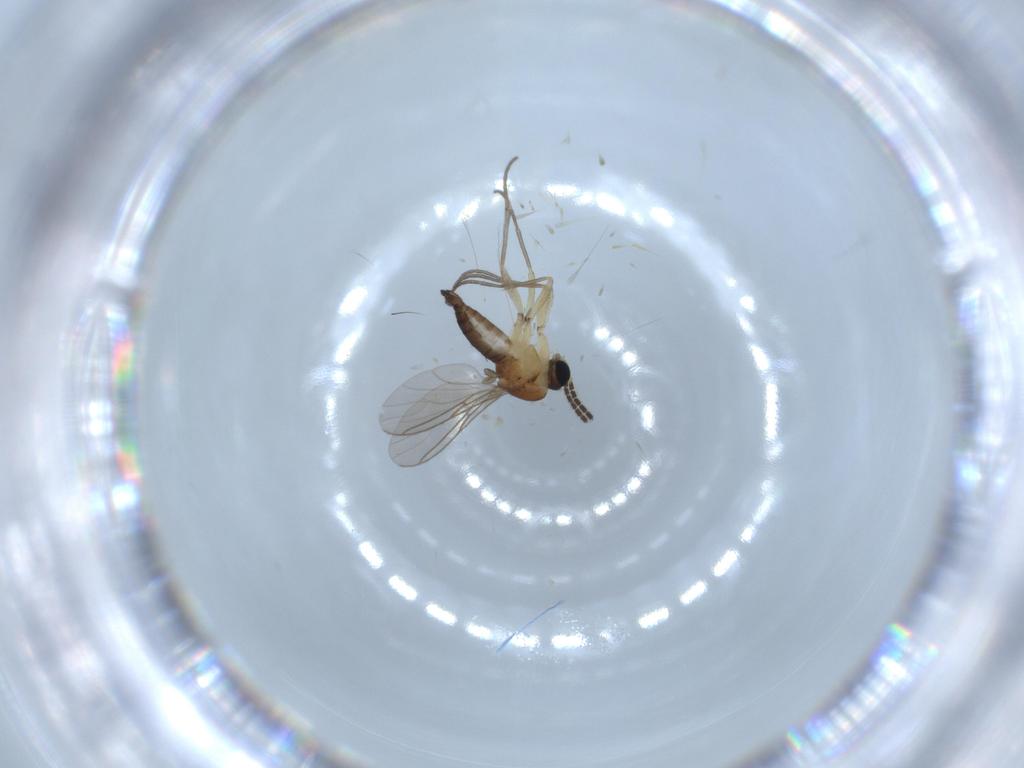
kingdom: Animalia
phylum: Arthropoda
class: Insecta
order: Diptera
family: Sciaridae
